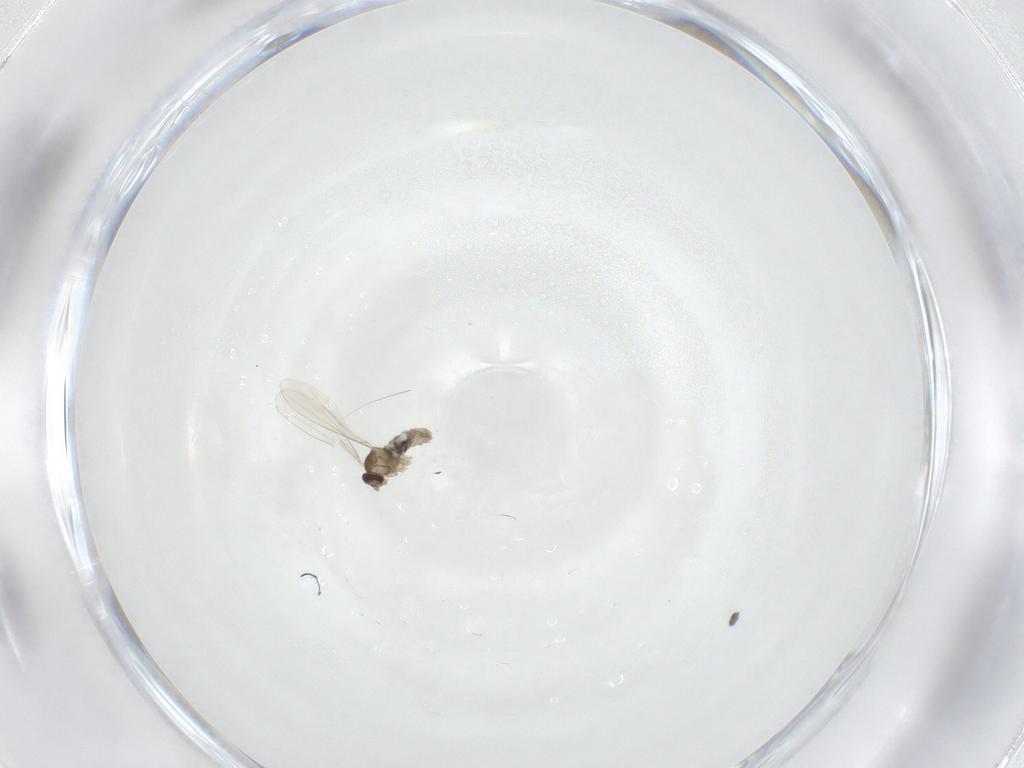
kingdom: Animalia
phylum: Arthropoda
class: Insecta
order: Diptera
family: Cecidomyiidae
